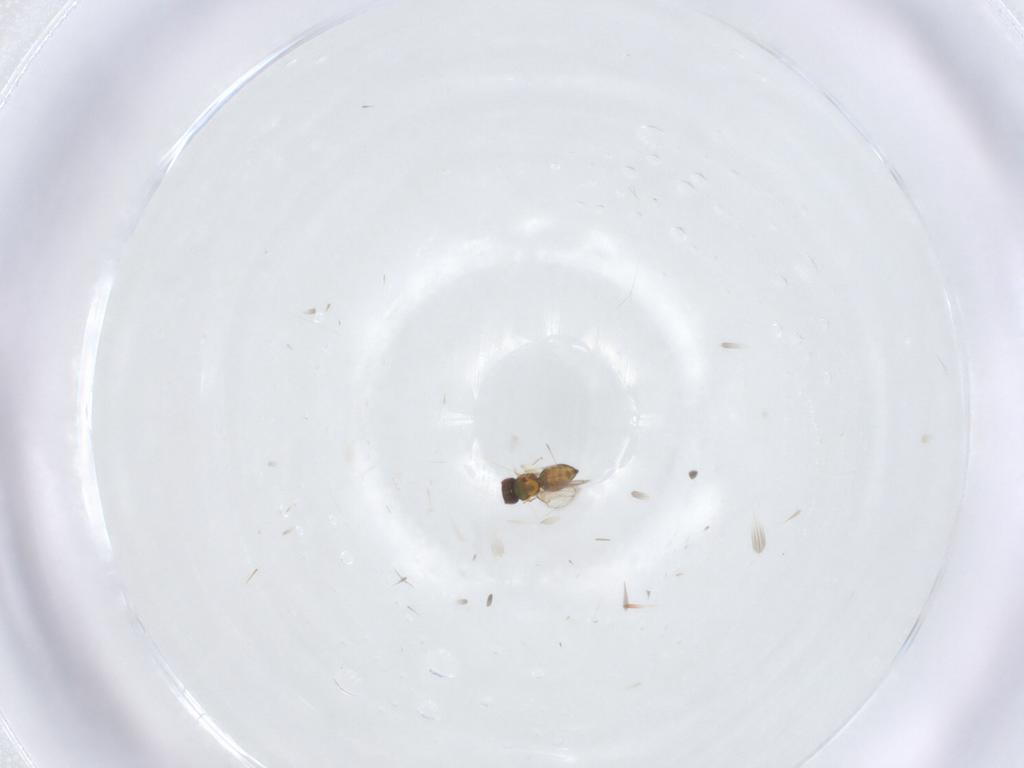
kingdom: Animalia
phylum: Arthropoda
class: Insecta
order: Hymenoptera
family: Eulophidae
